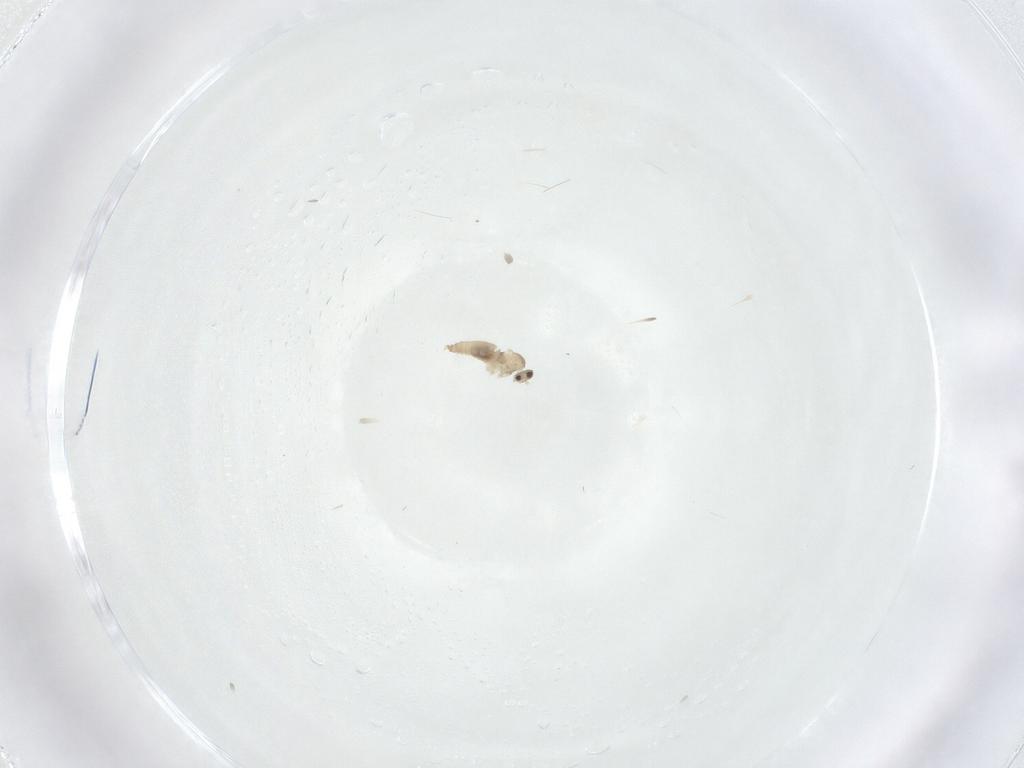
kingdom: Animalia
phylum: Arthropoda
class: Insecta
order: Diptera
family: Cecidomyiidae
